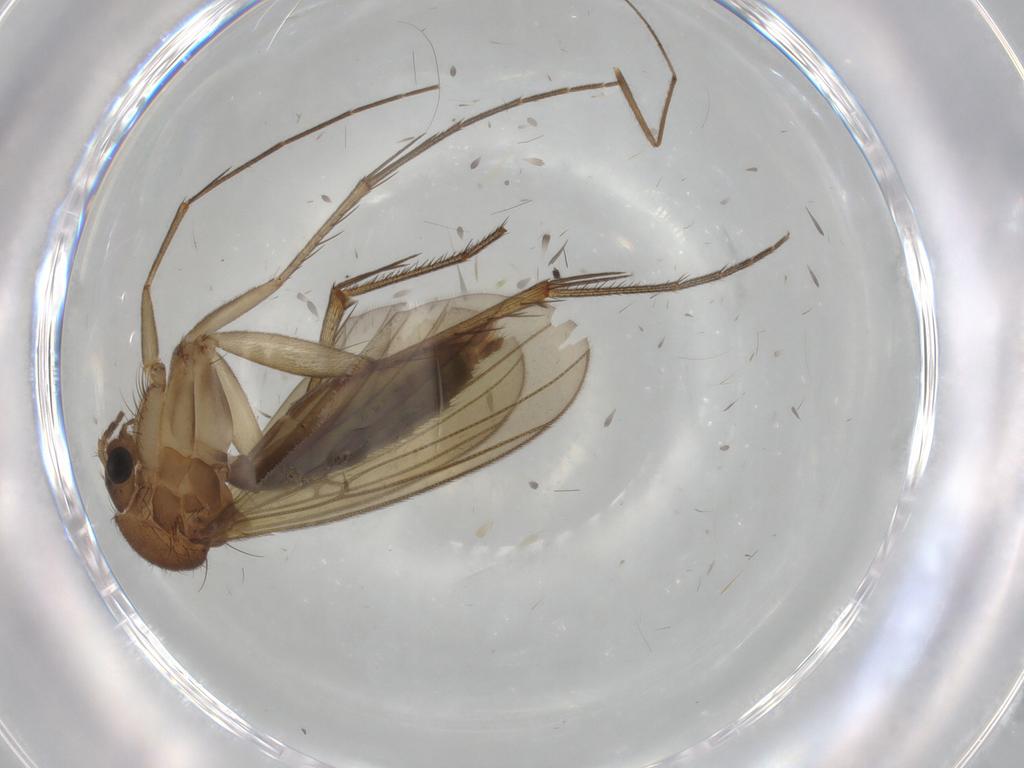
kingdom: Animalia
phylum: Arthropoda
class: Insecta
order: Diptera
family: Mycetophilidae
